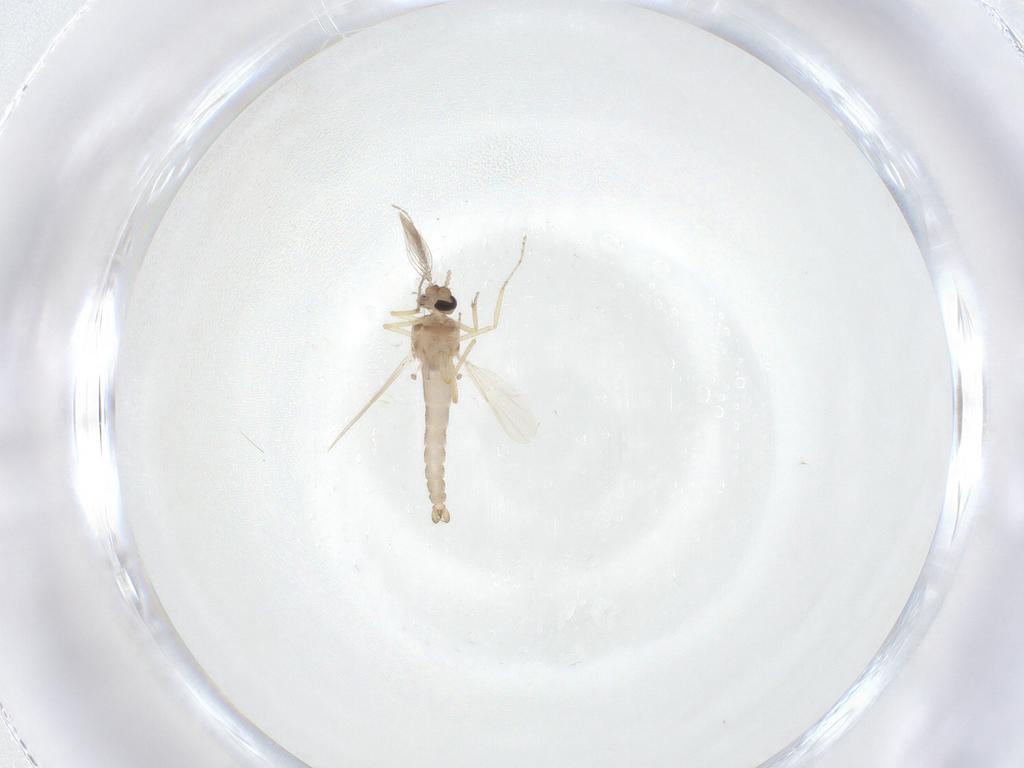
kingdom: Animalia
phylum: Arthropoda
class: Insecta
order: Diptera
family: Ceratopogonidae
